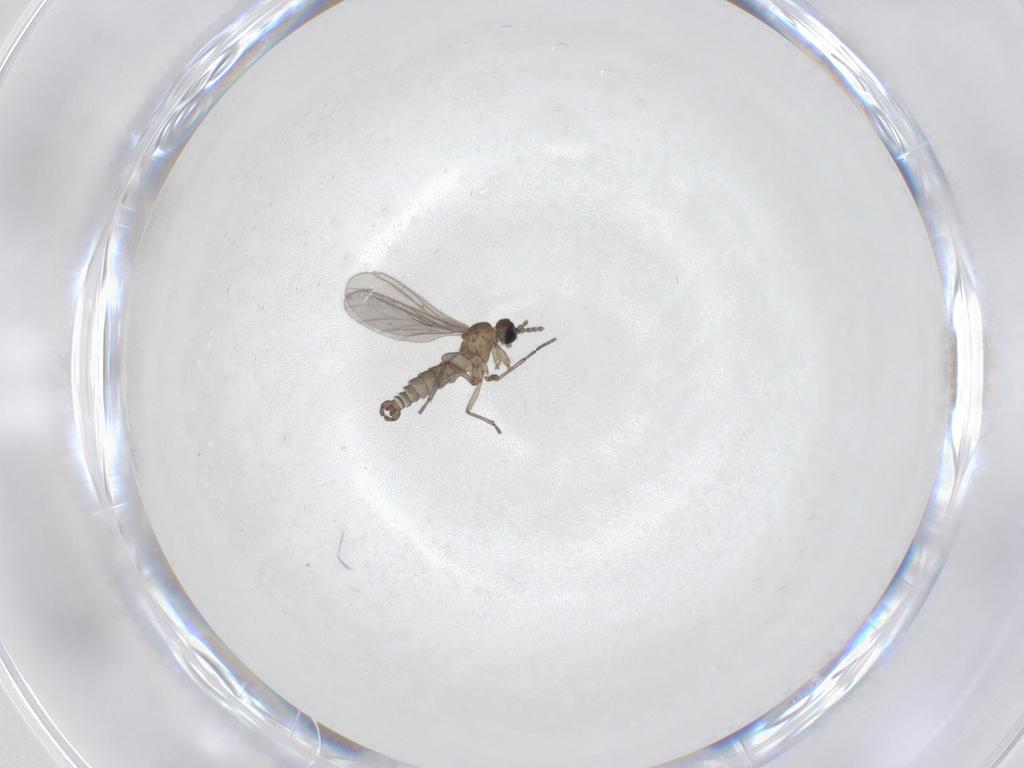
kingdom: Animalia
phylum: Arthropoda
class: Insecta
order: Diptera
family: Sciaridae
